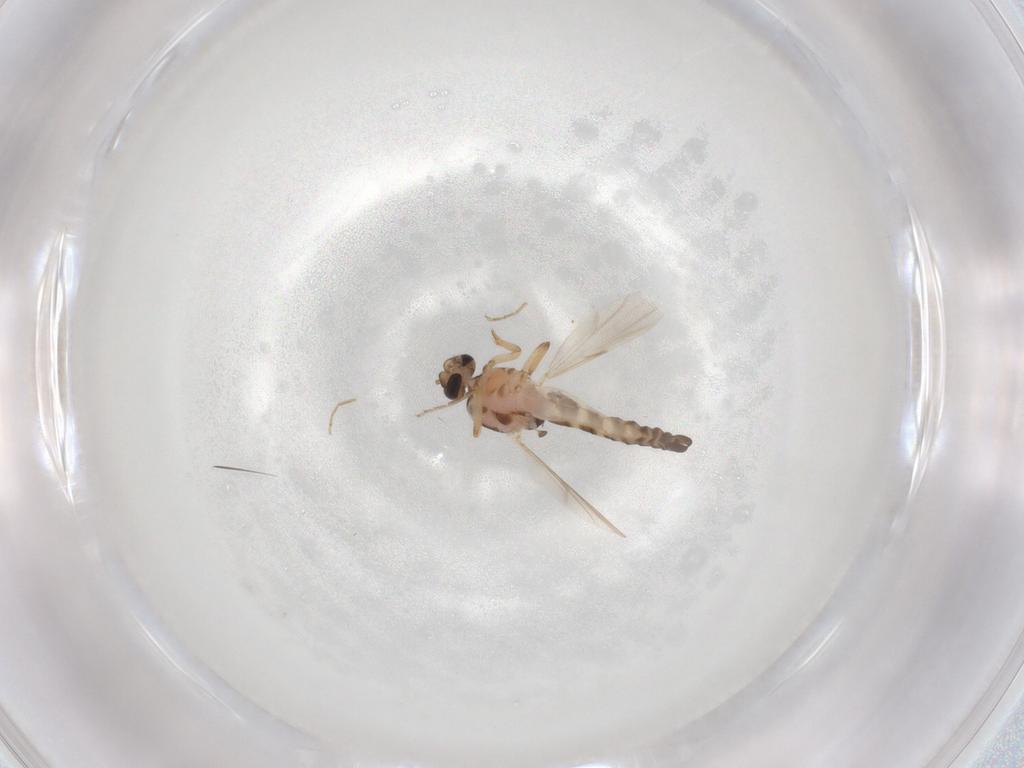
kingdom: Animalia
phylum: Arthropoda
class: Insecta
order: Diptera
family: Ceratopogonidae
